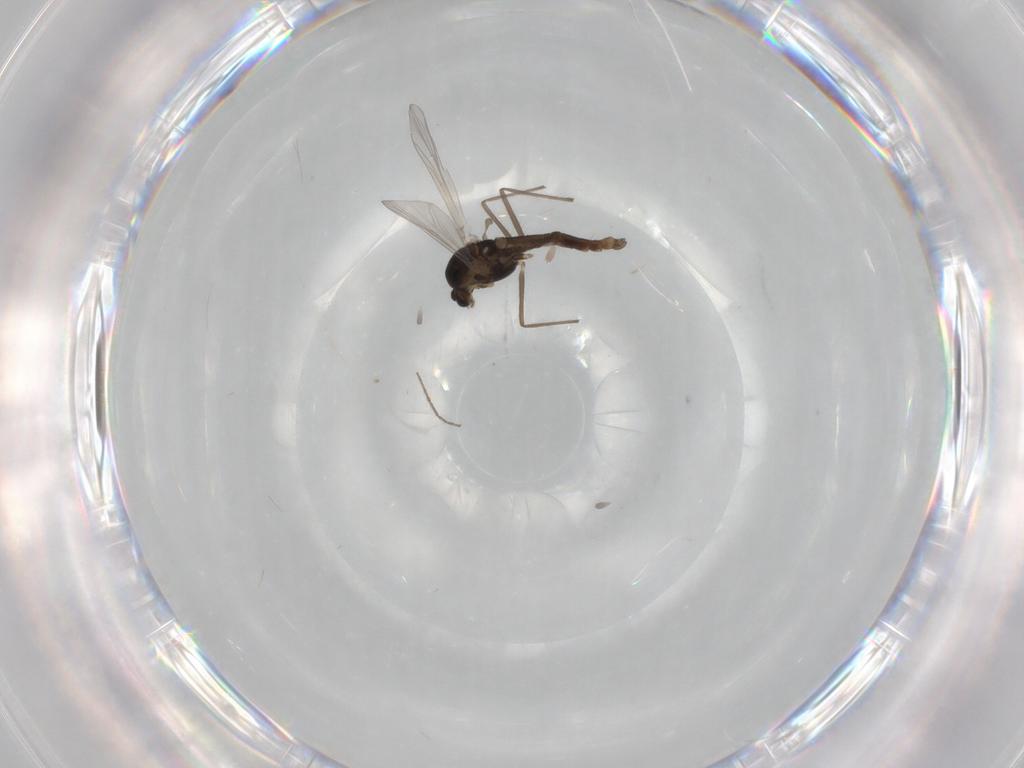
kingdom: Animalia
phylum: Arthropoda
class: Insecta
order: Diptera
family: Chironomidae
